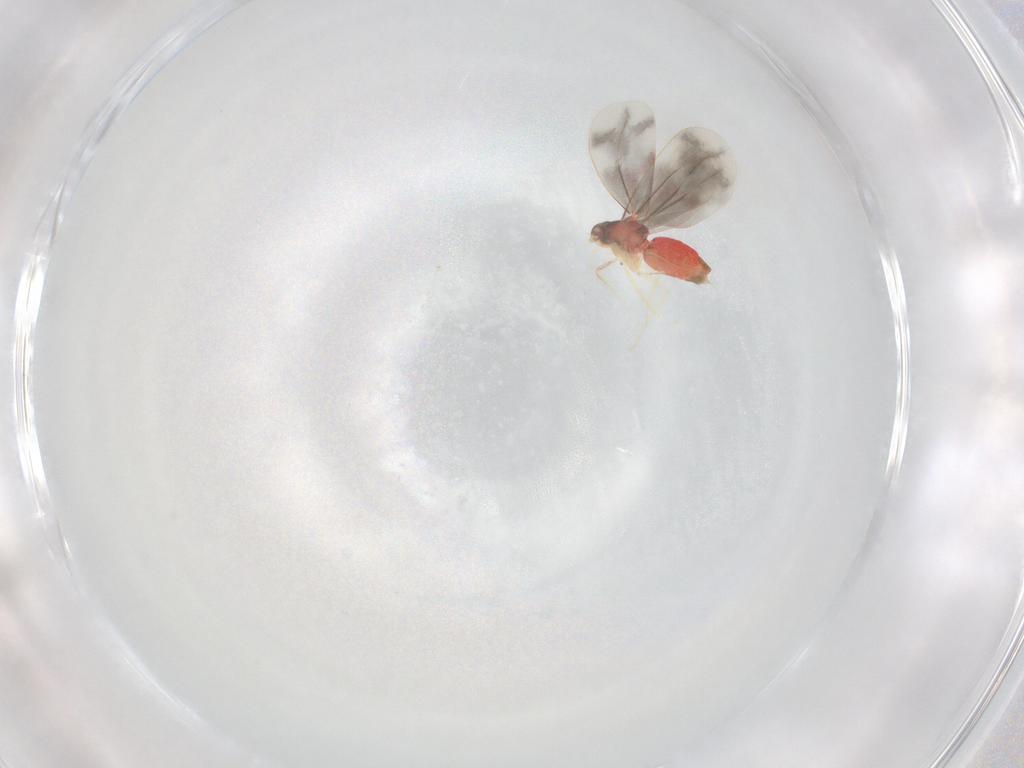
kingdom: Animalia
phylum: Arthropoda
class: Insecta
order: Hemiptera
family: Aleyrodidae
